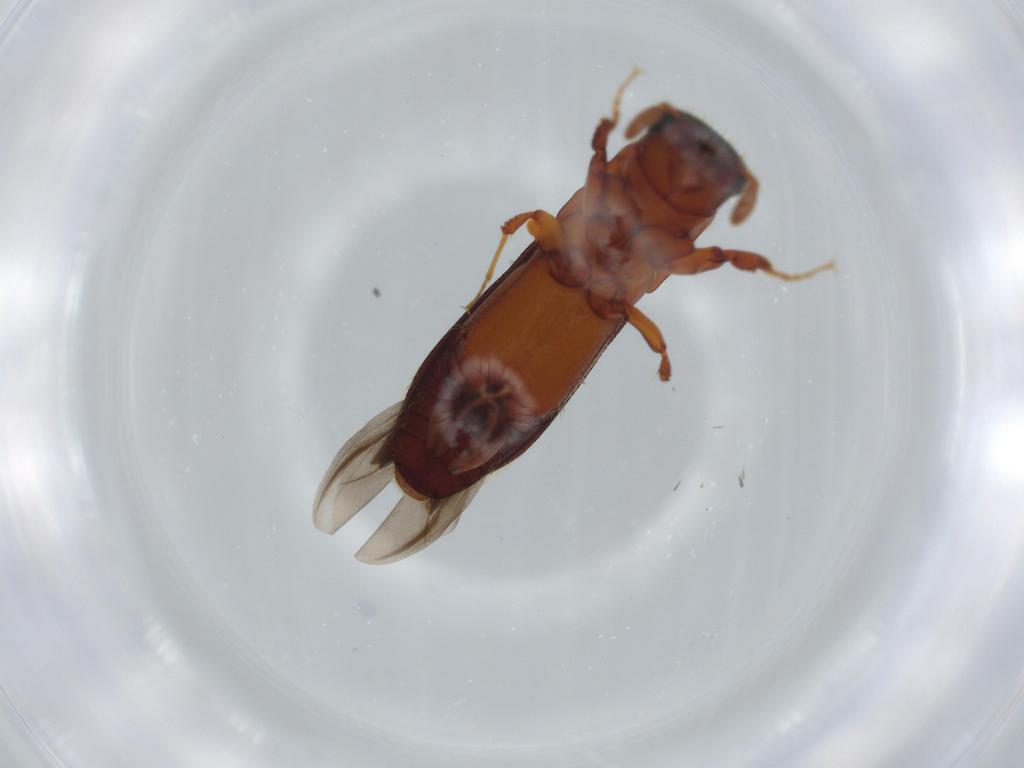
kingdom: Animalia
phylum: Arthropoda
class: Insecta
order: Coleoptera
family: Curculionidae
